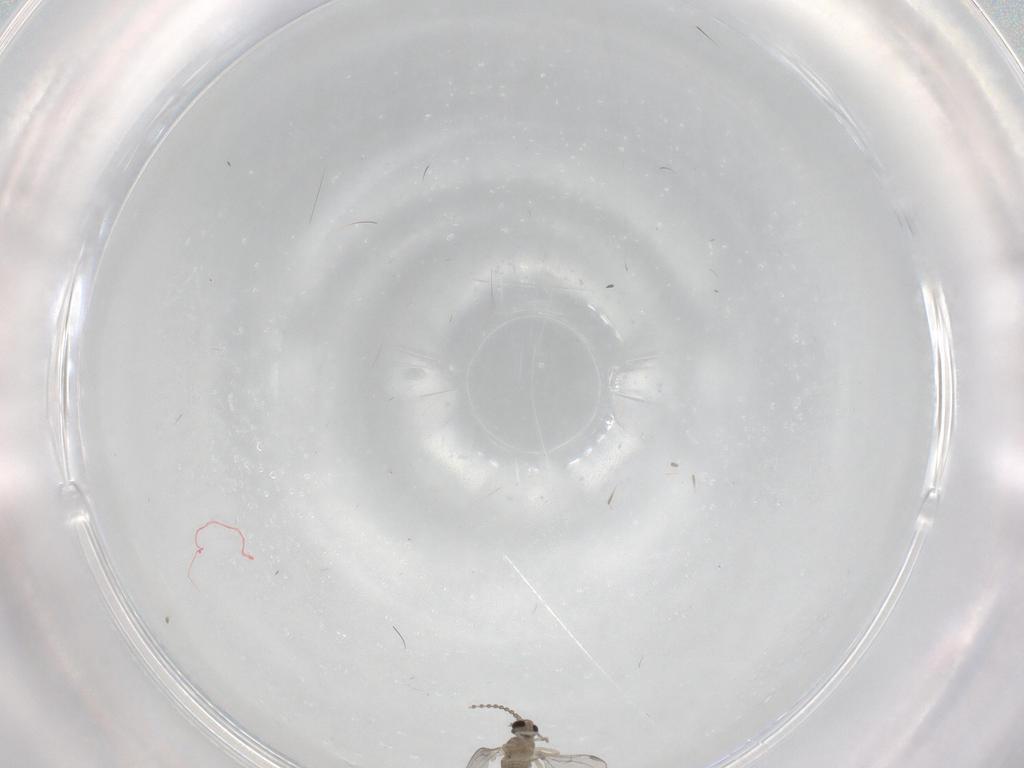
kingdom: Animalia
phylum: Arthropoda
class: Insecta
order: Diptera
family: Cecidomyiidae
